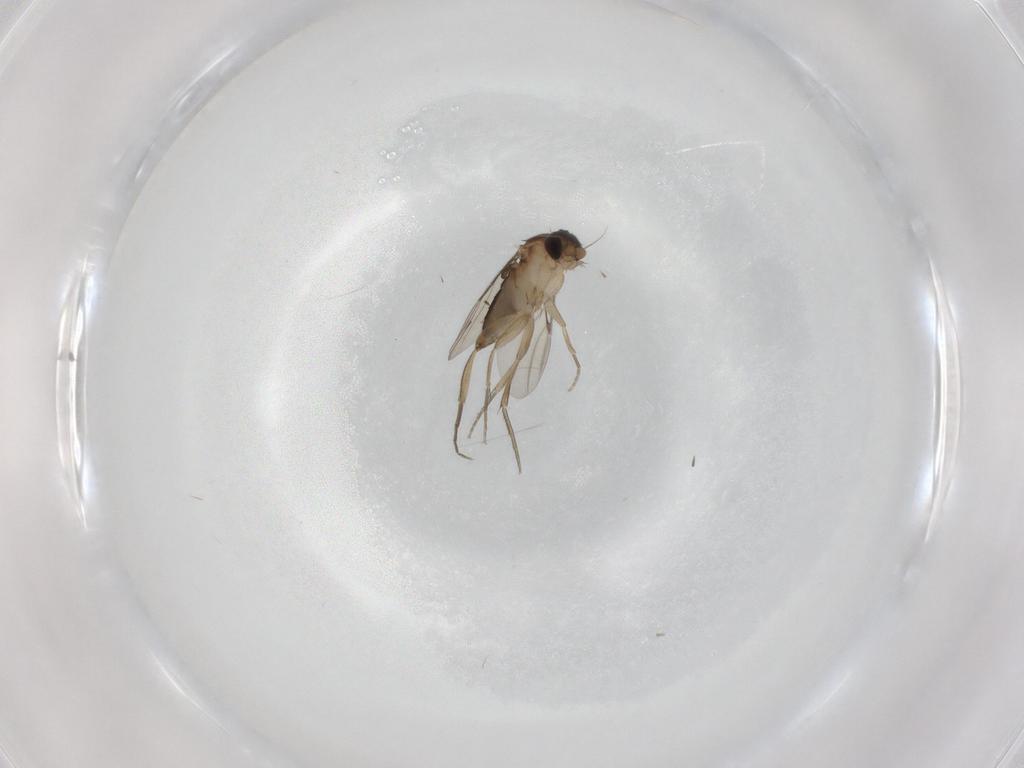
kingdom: Animalia
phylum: Arthropoda
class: Insecta
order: Diptera
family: Phoridae
